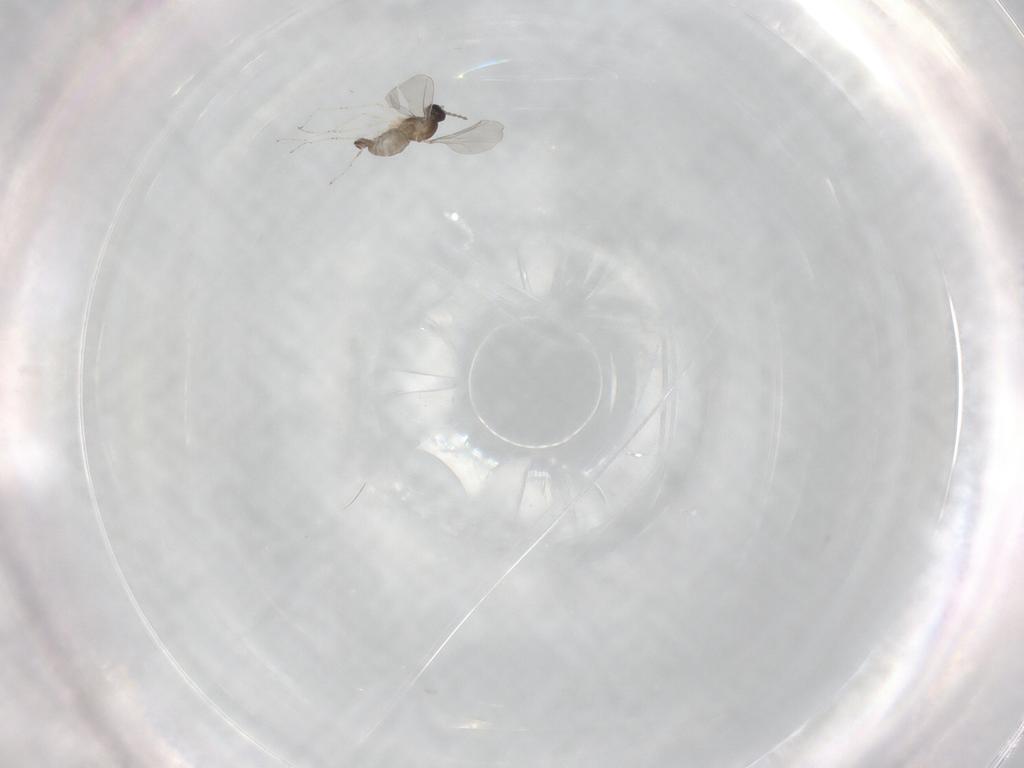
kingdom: Animalia
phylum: Arthropoda
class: Insecta
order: Diptera
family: Cecidomyiidae
